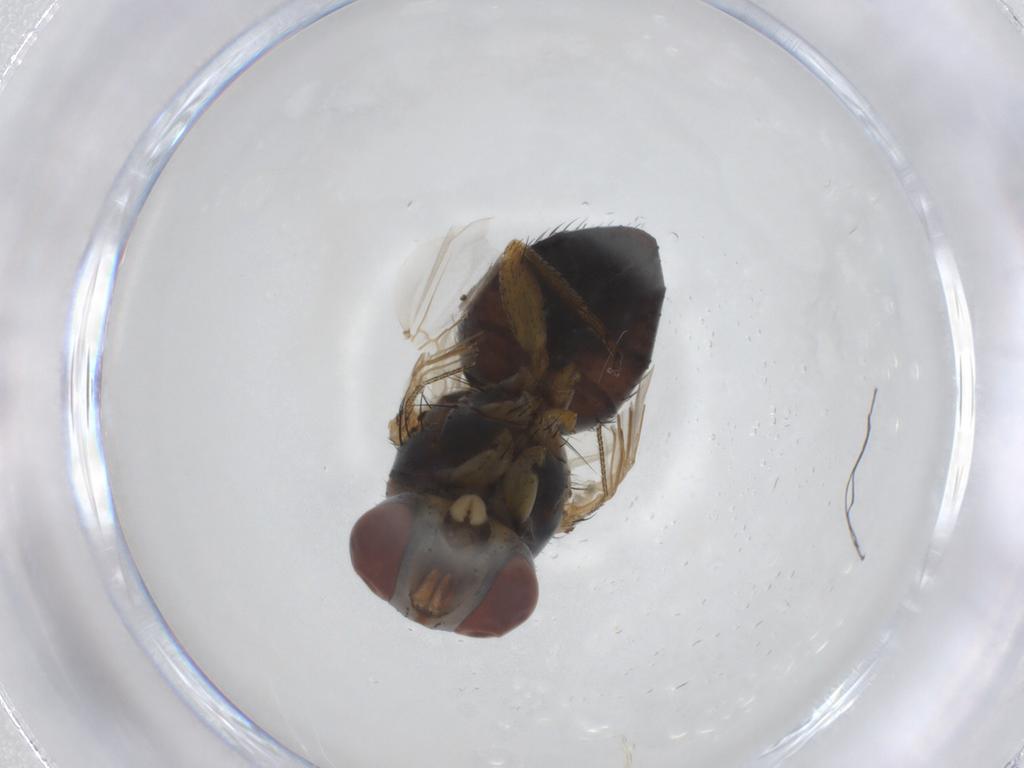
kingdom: Animalia
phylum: Arthropoda
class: Insecta
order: Diptera
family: Tachinidae
